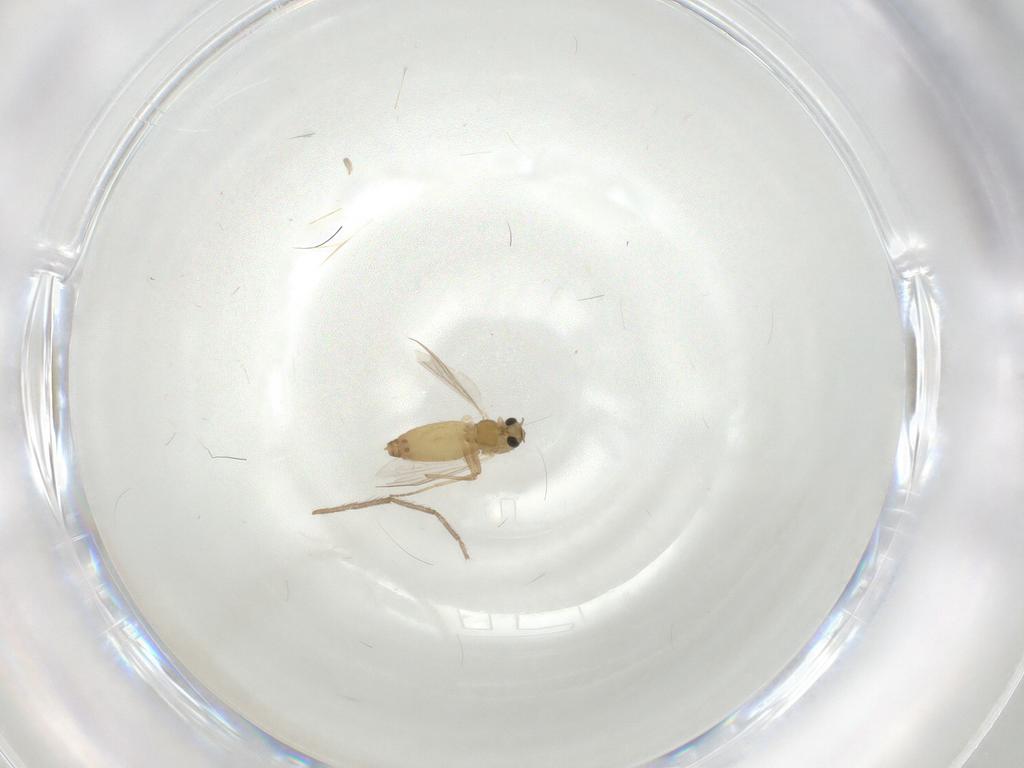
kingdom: Animalia
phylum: Arthropoda
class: Insecta
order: Diptera
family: Chironomidae
